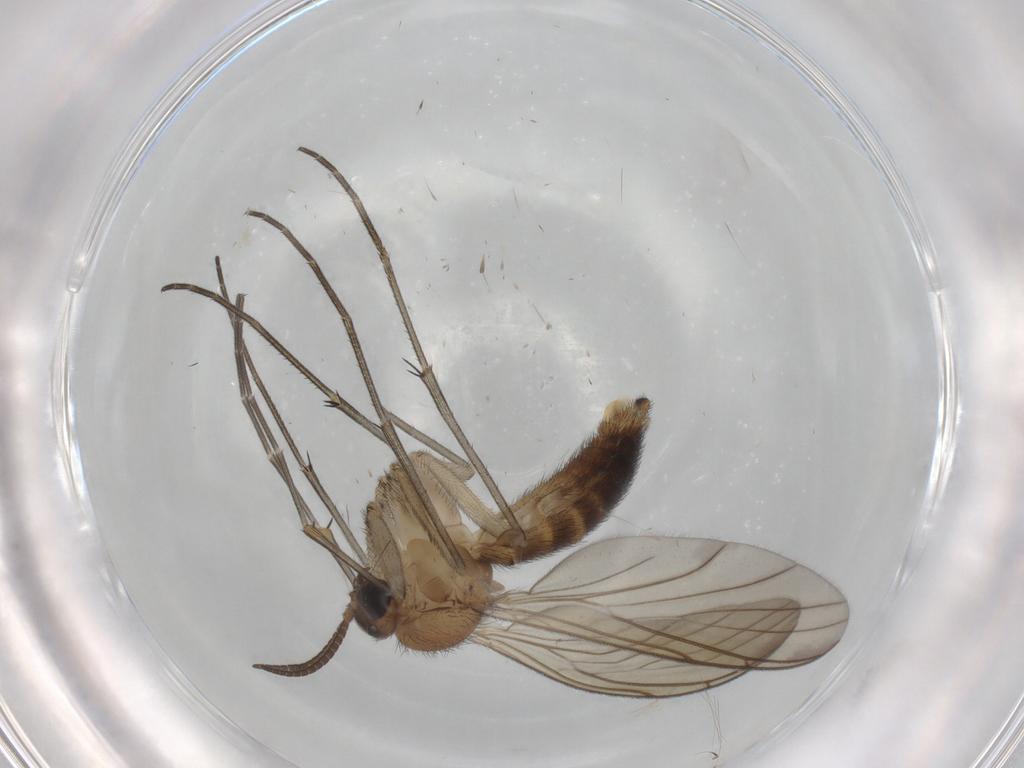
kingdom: Animalia
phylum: Arthropoda
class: Insecta
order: Diptera
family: Keroplatidae
